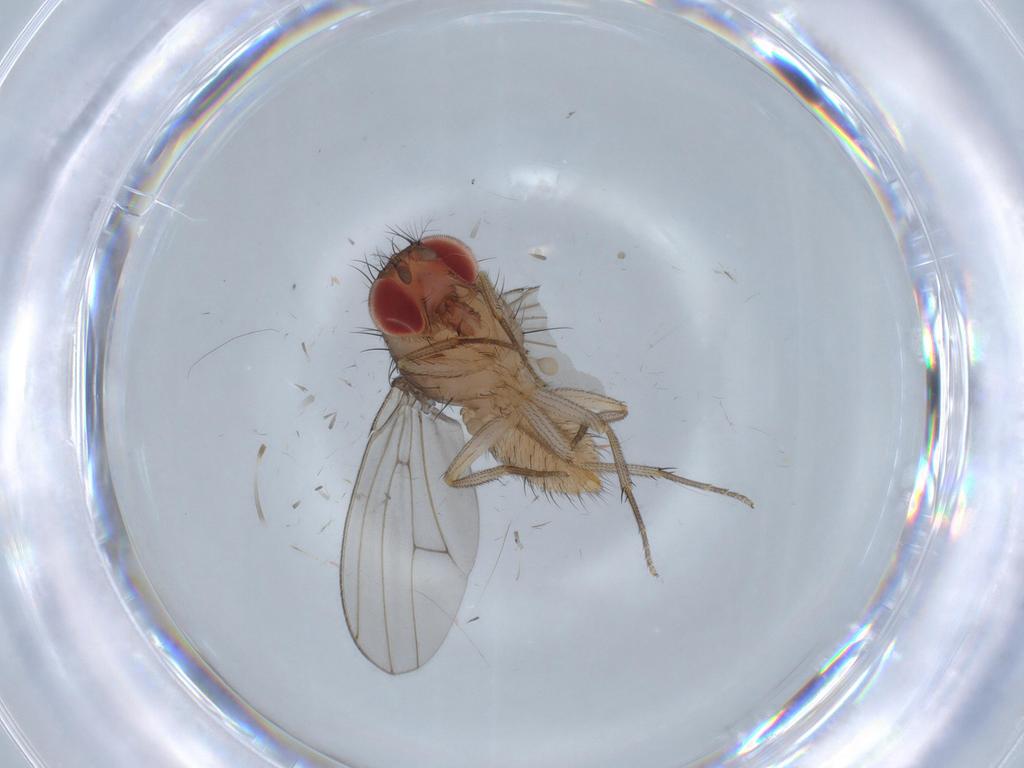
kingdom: Animalia
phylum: Arthropoda
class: Insecta
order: Diptera
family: Drosophilidae
